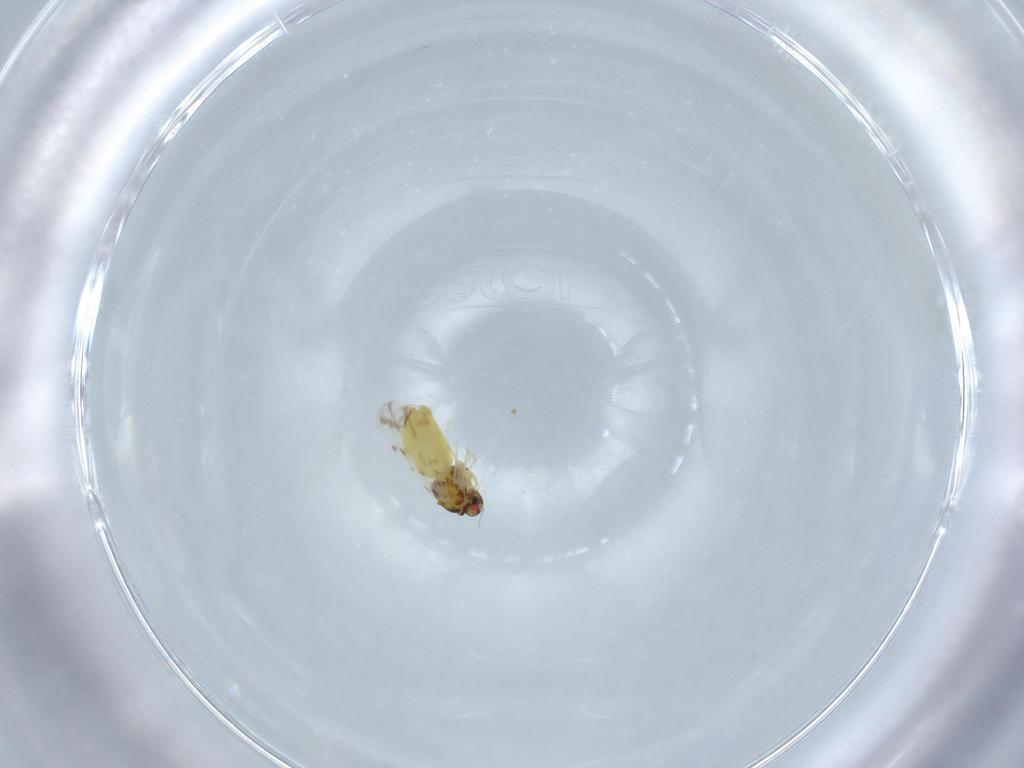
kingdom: Animalia
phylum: Arthropoda
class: Insecta
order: Hemiptera
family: Aleyrodidae
